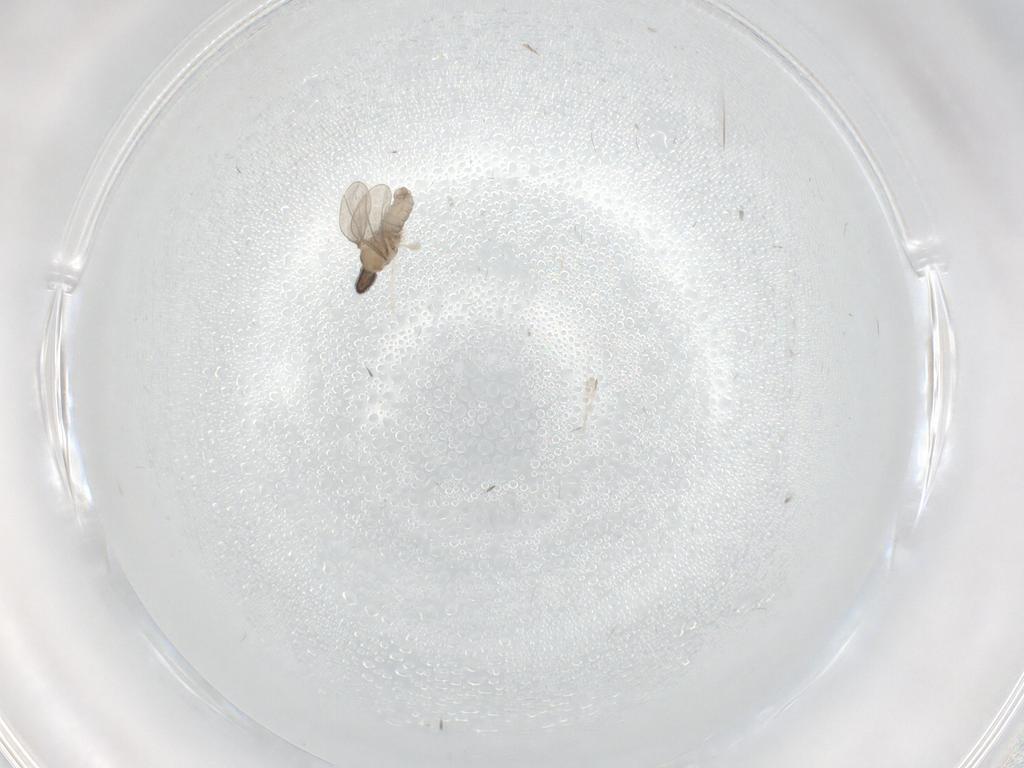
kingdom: Animalia
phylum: Arthropoda
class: Insecta
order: Diptera
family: Cecidomyiidae
